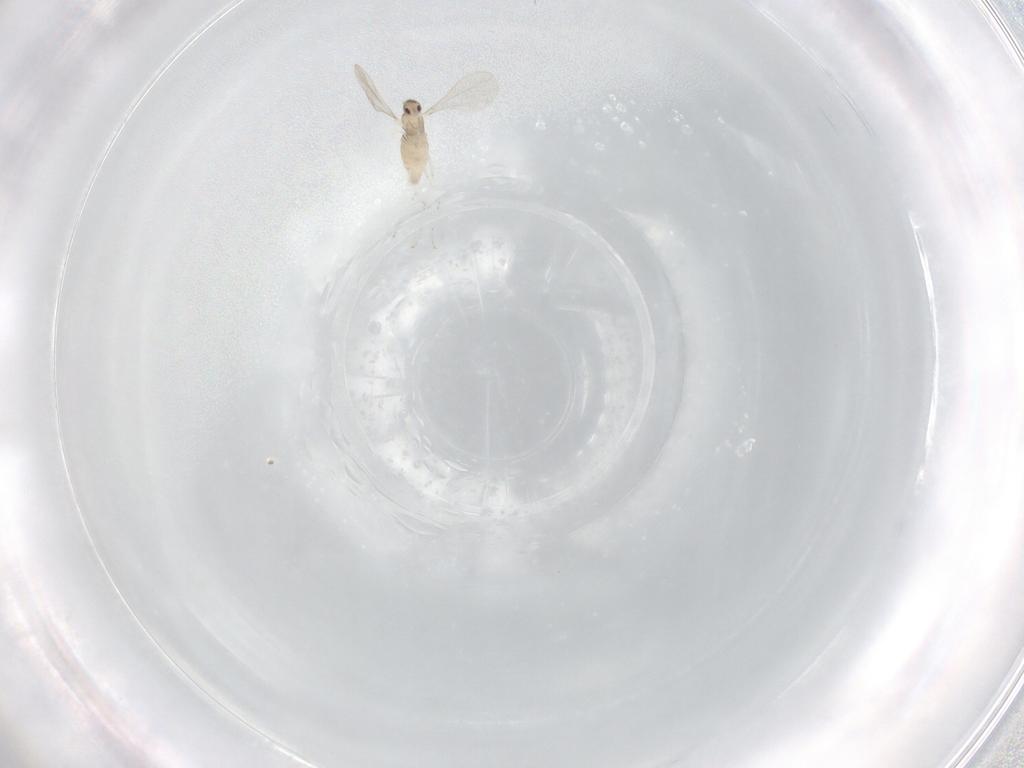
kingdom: Animalia
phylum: Arthropoda
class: Insecta
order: Diptera
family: Cecidomyiidae
